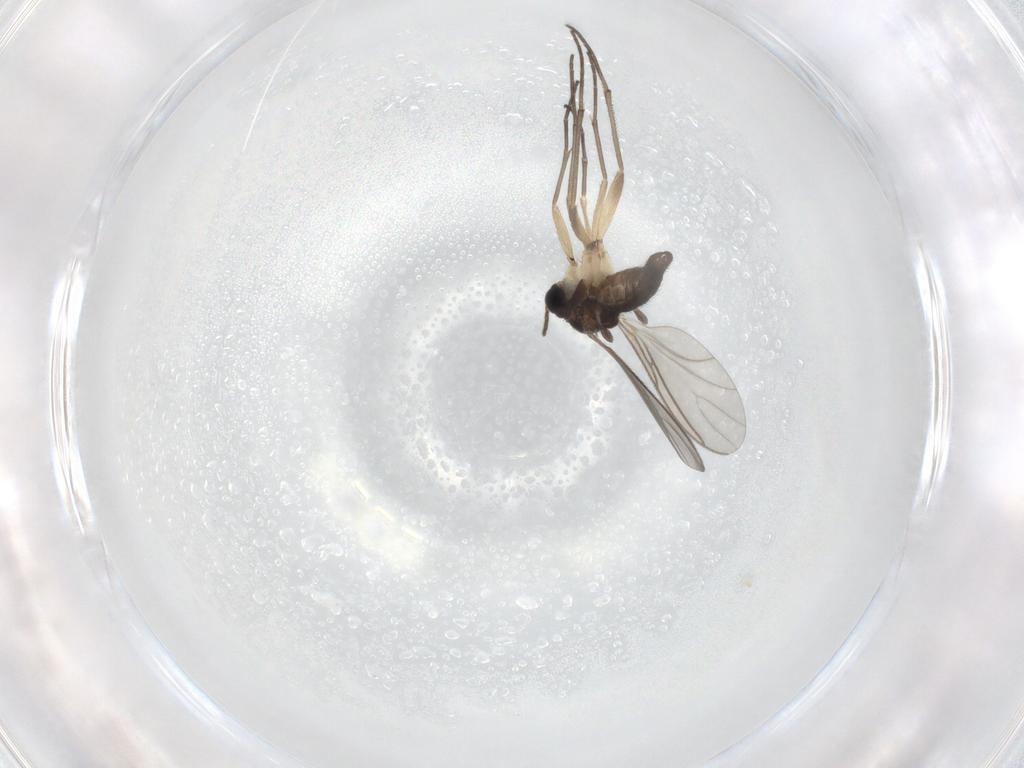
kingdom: Animalia
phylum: Arthropoda
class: Insecta
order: Diptera
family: Sciaridae
